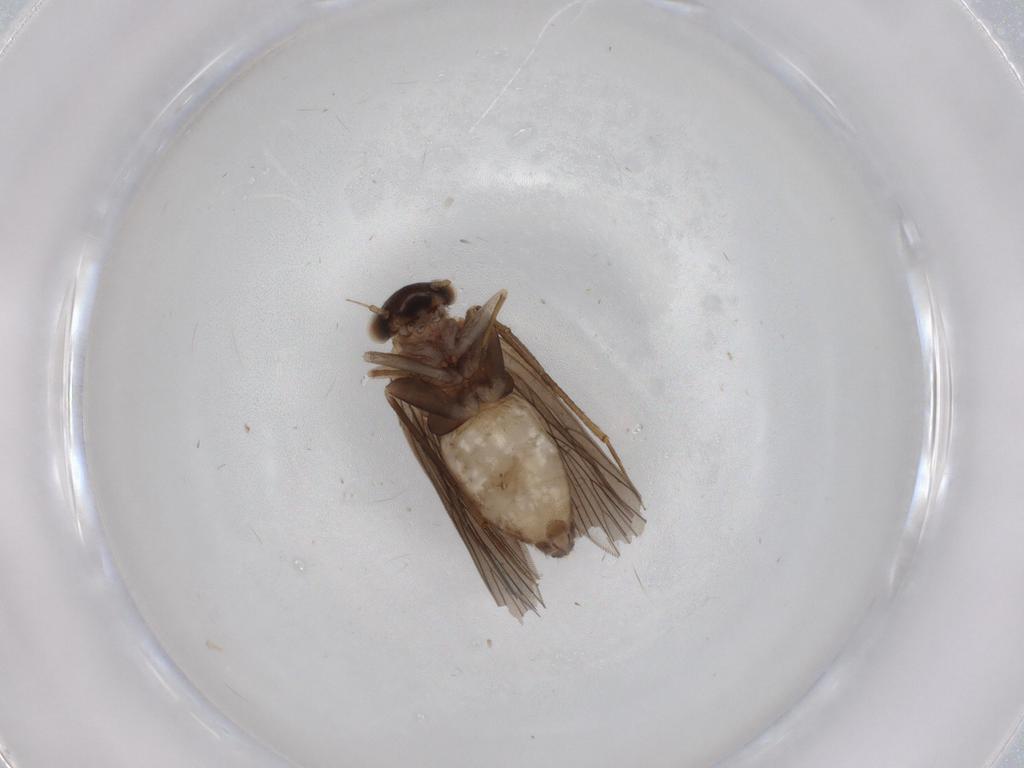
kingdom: Animalia
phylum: Arthropoda
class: Insecta
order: Psocodea
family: Lepidopsocidae
